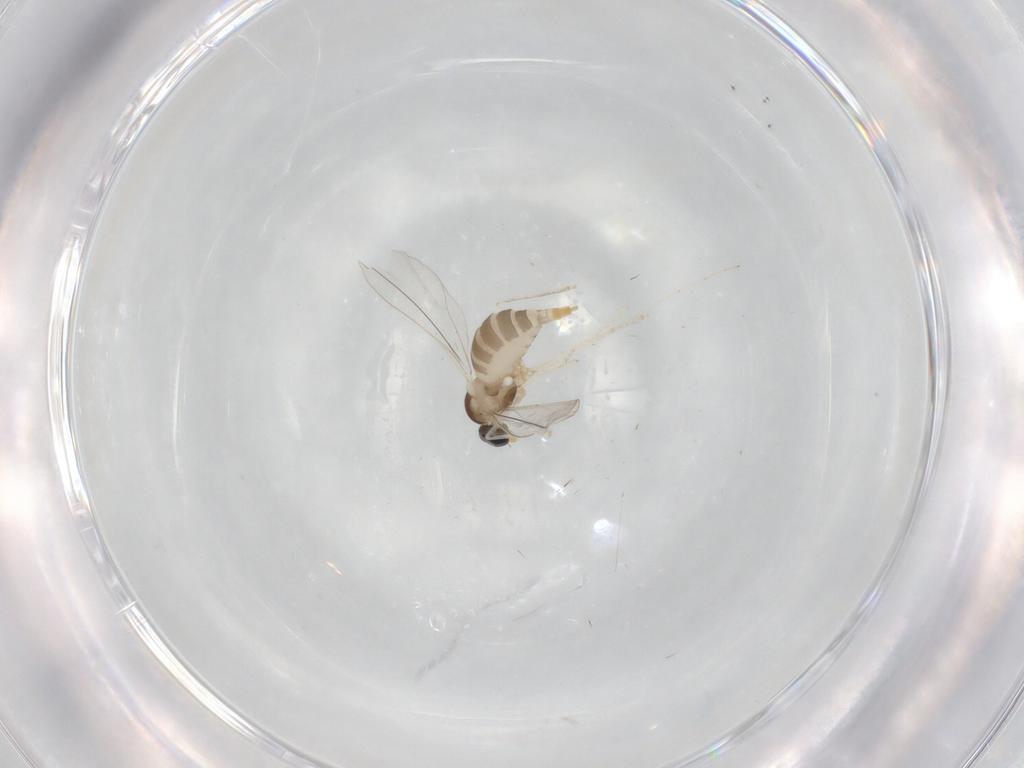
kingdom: Animalia
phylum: Arthropoda
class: Insecta
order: Diptera
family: Cecidomyiidae
